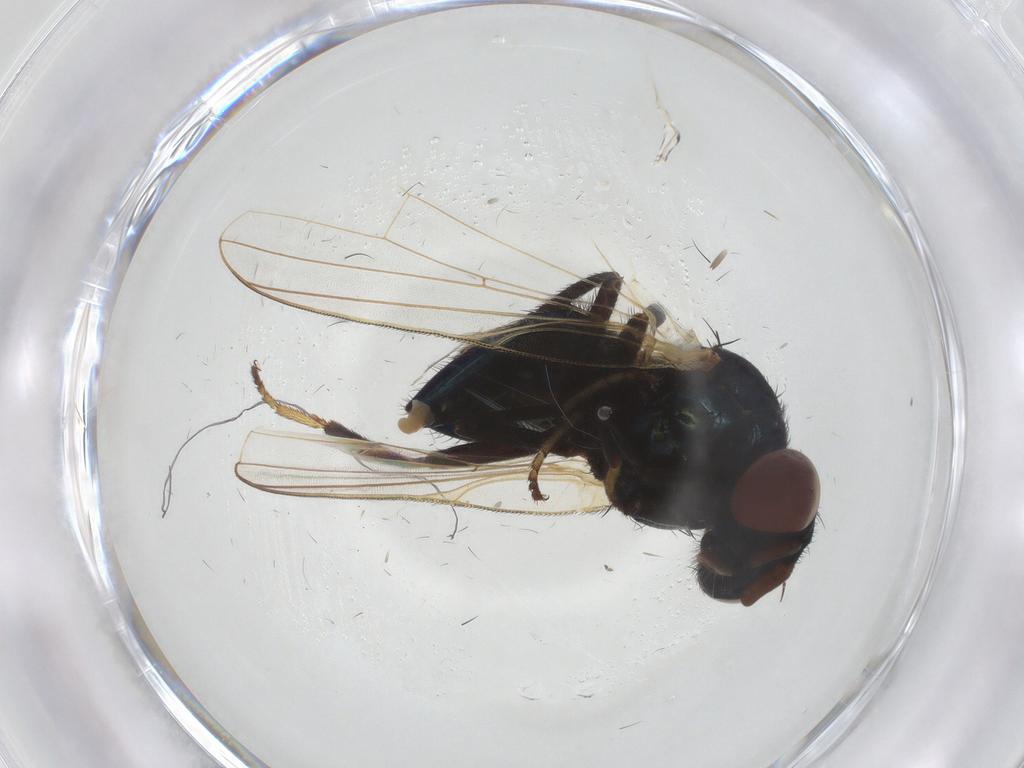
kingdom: Animalia
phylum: Arthropoda
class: Insecta
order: Diptera
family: Lonchaeidae
